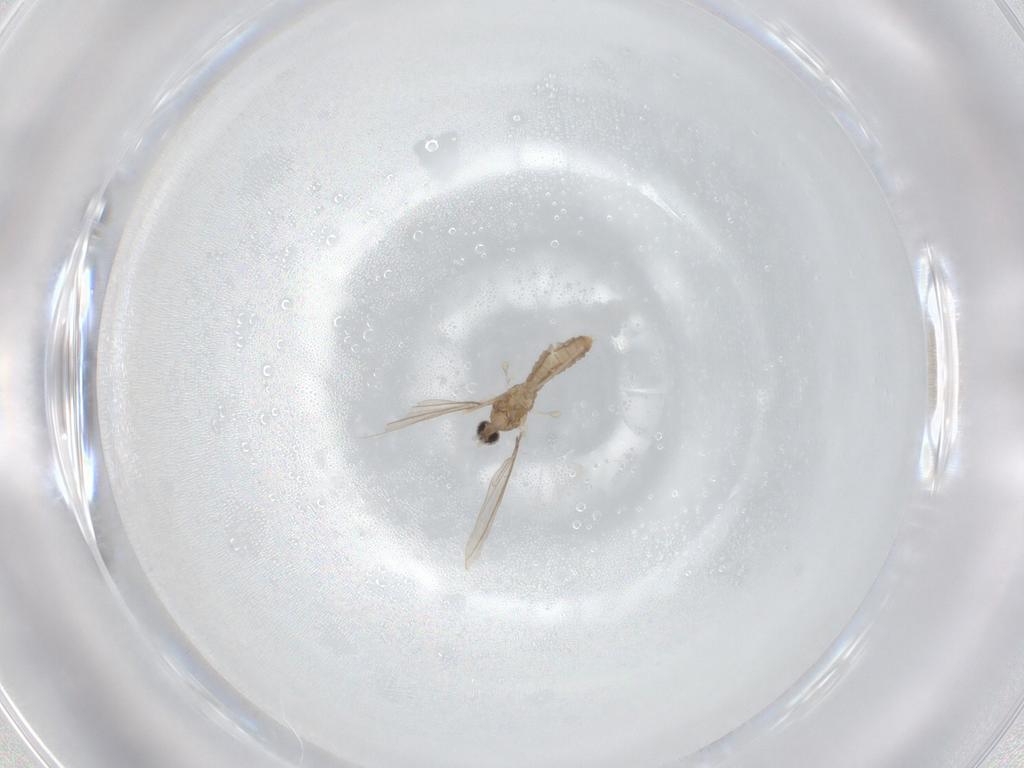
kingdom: Animalia
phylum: Arthropoda
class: Insecta
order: Diptera
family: Cecidomyiidae
